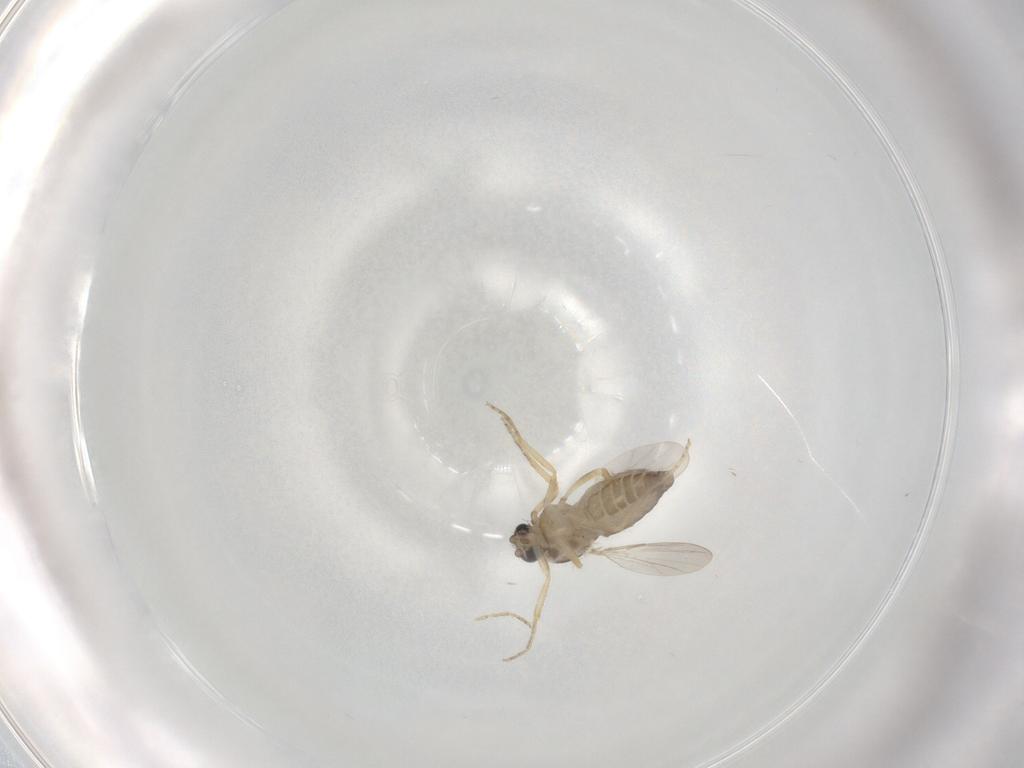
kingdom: Animalia
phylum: Arthropoda
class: Insecta
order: Diptera
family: Ceratopogonidae
